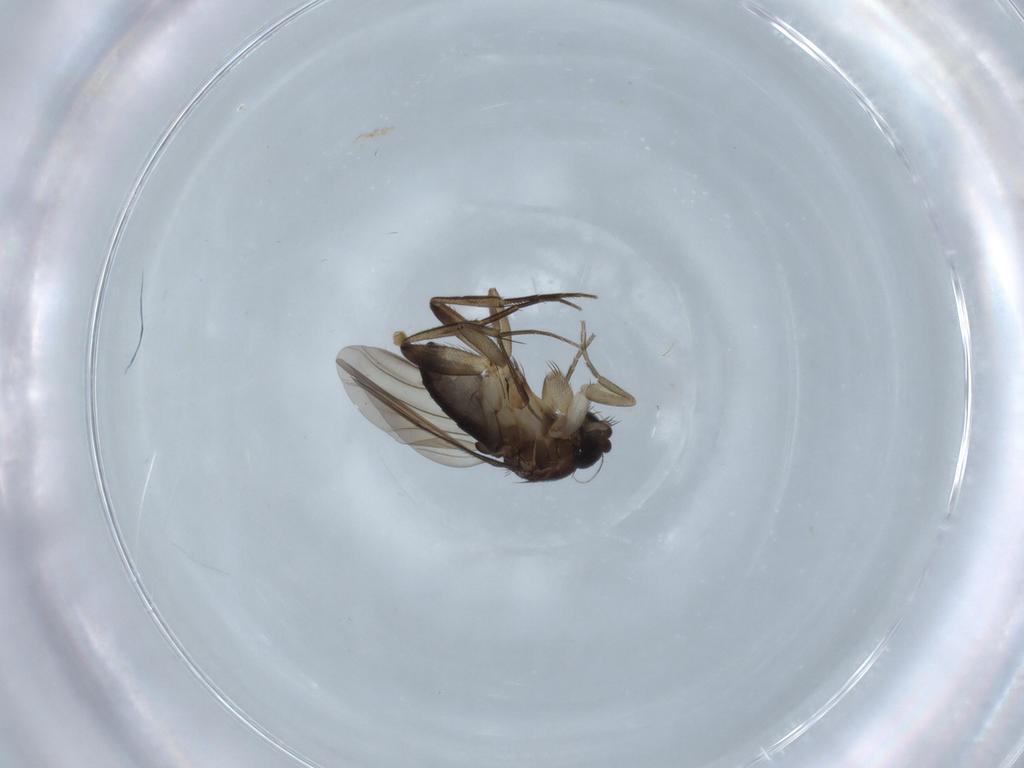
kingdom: Animalia
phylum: Arthropoda
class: Insecta
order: Diptera
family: Phoridae
